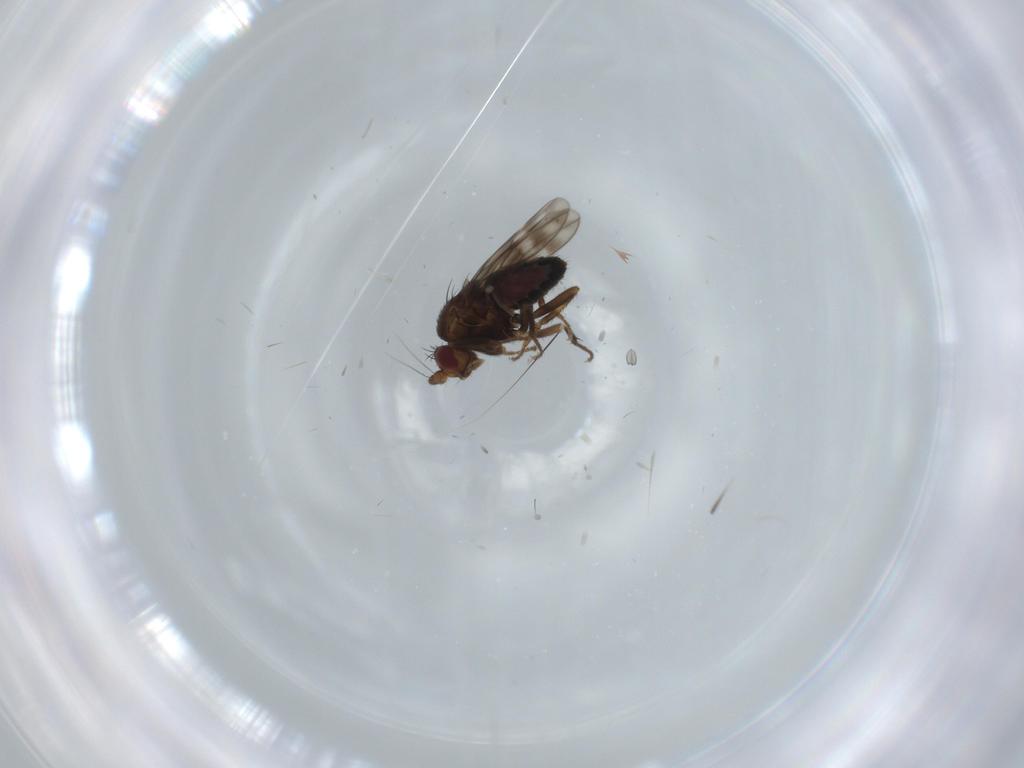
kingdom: Animalia
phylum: Arthropoda
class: Insecta
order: Diptera
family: Sphaeroceridae
